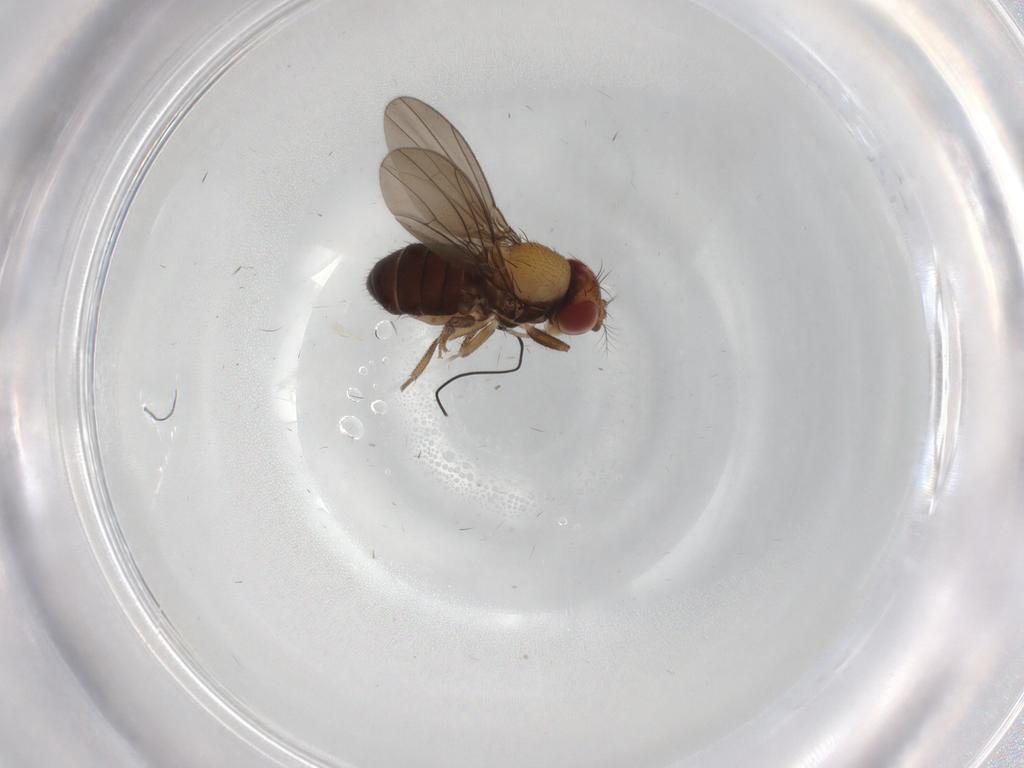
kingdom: Animalia
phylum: Arthropoda
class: Insecta
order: Diptera
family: Drosophilidae
